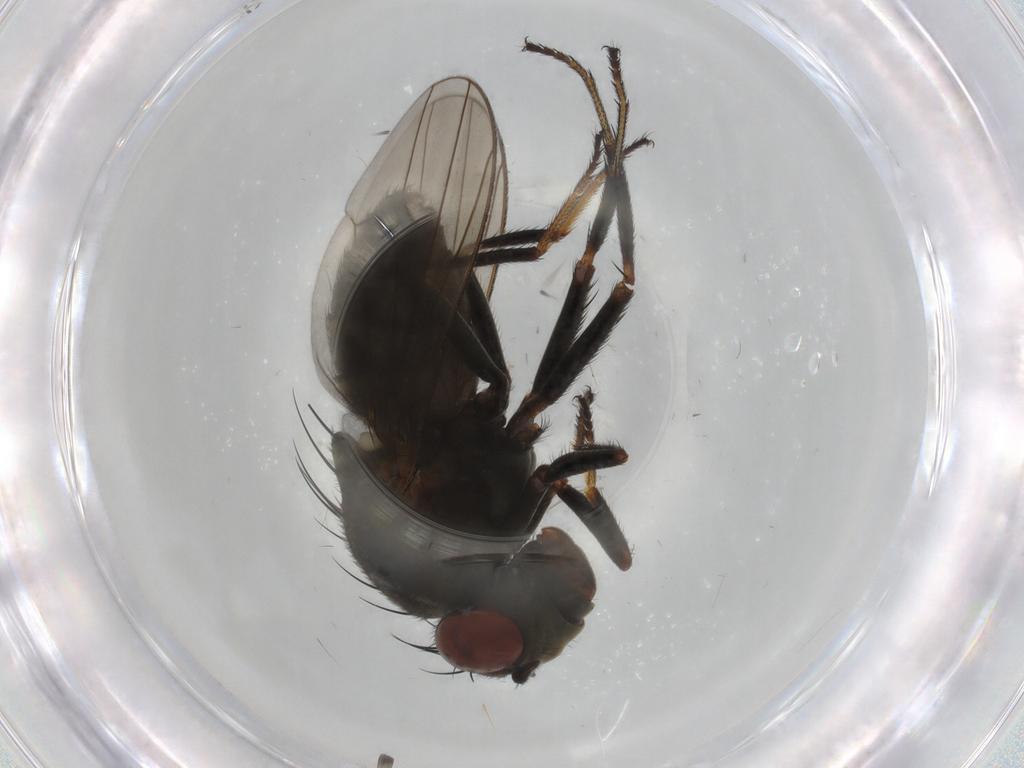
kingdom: Animalia
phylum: Arthropoda
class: Insecta
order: Diptera
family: Ephydridae
